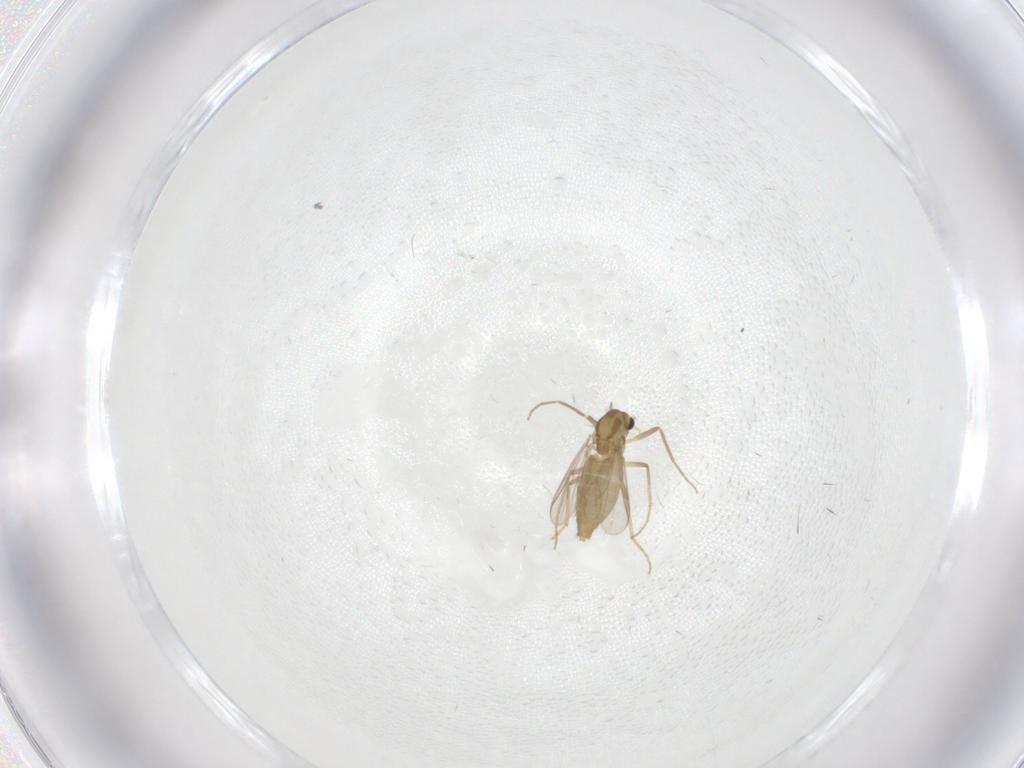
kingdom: Animalia
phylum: Arthropoda
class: Insecta
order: Diptera
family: Chironomidae
